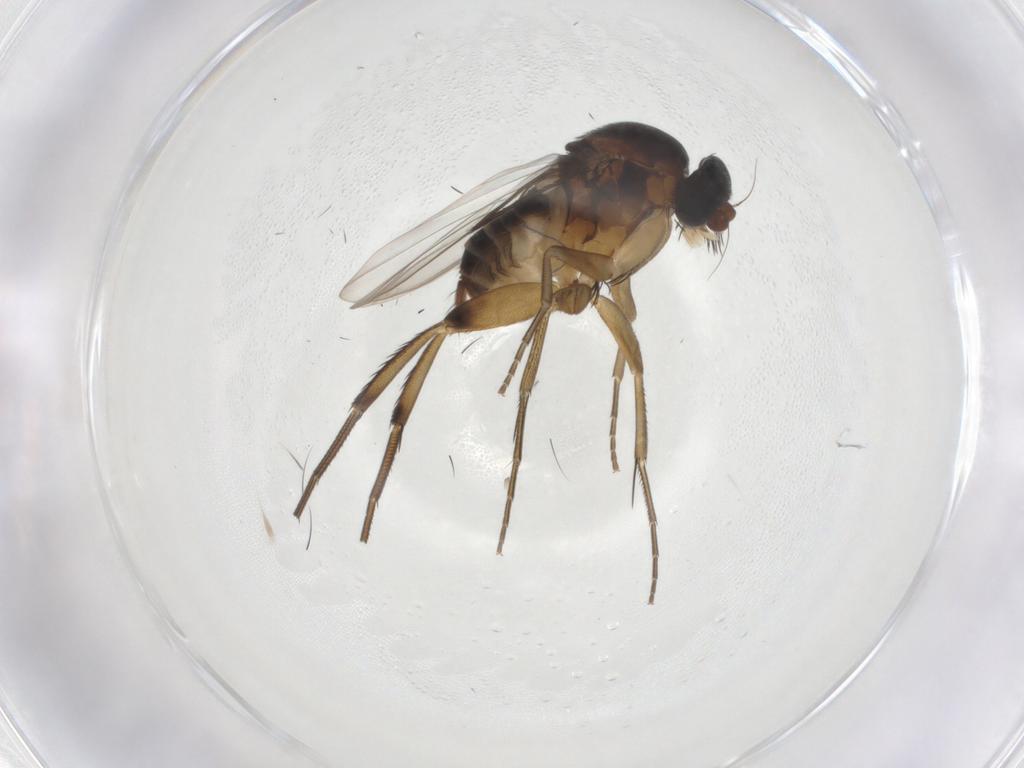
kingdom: Animalia
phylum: Arthropoda
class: Insecta
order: Diptera
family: Phoridae
